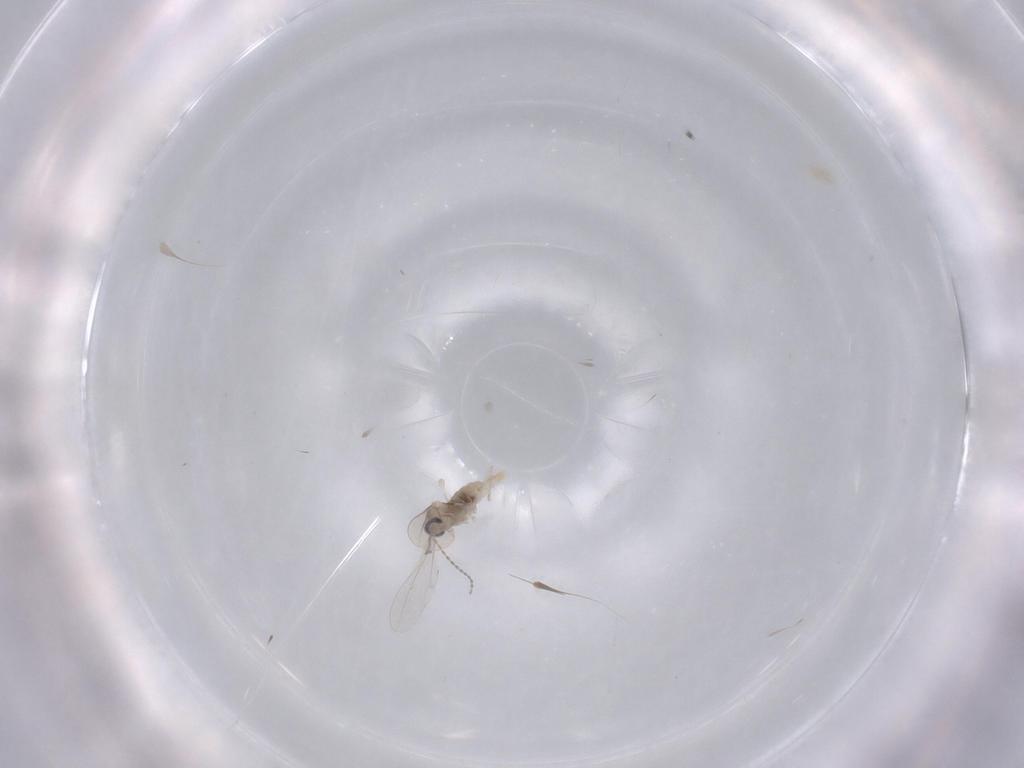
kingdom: Animalia
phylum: Arthropoda
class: Insecta
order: Diptera
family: Cecidomyiidae
